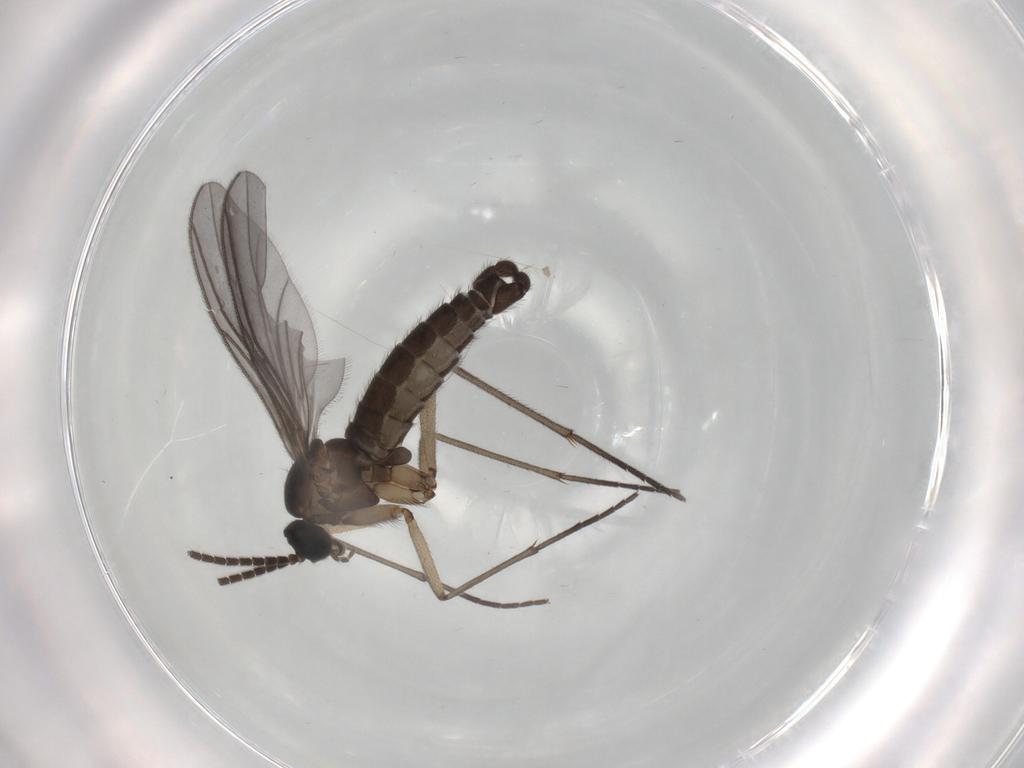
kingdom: Animalia
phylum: Arthropoda
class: Insecta
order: Diptera
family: Sciaridae
